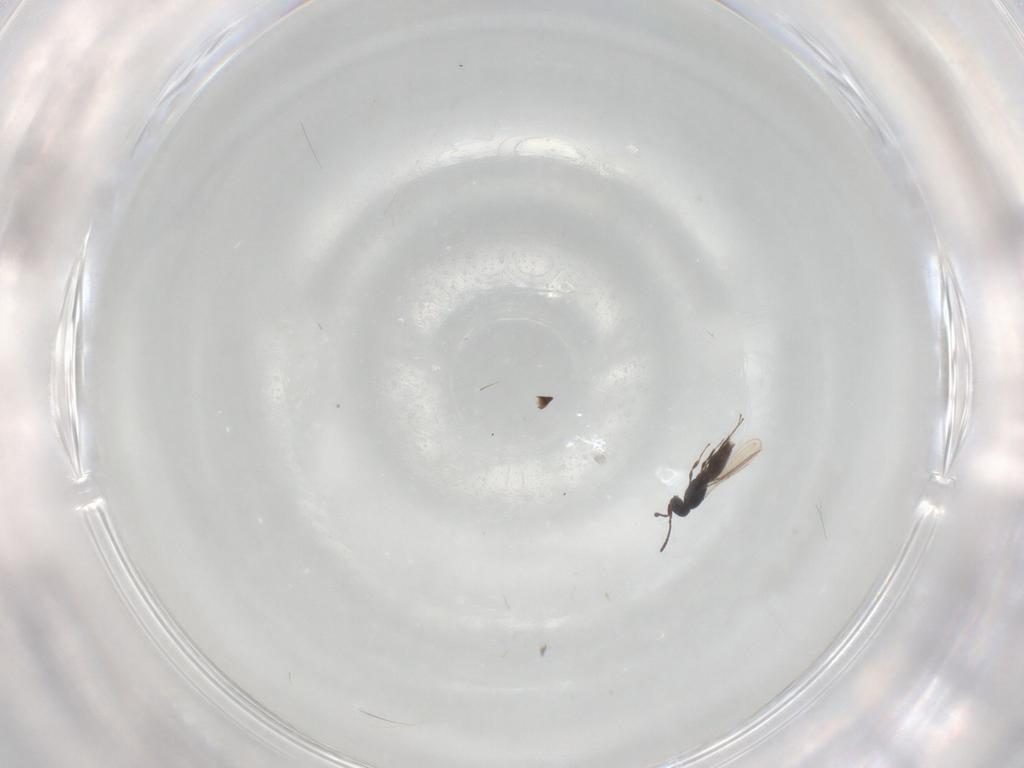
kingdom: Animalia
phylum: Arthropoda
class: Insecta
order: Hymenoptera
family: Scelionidae
